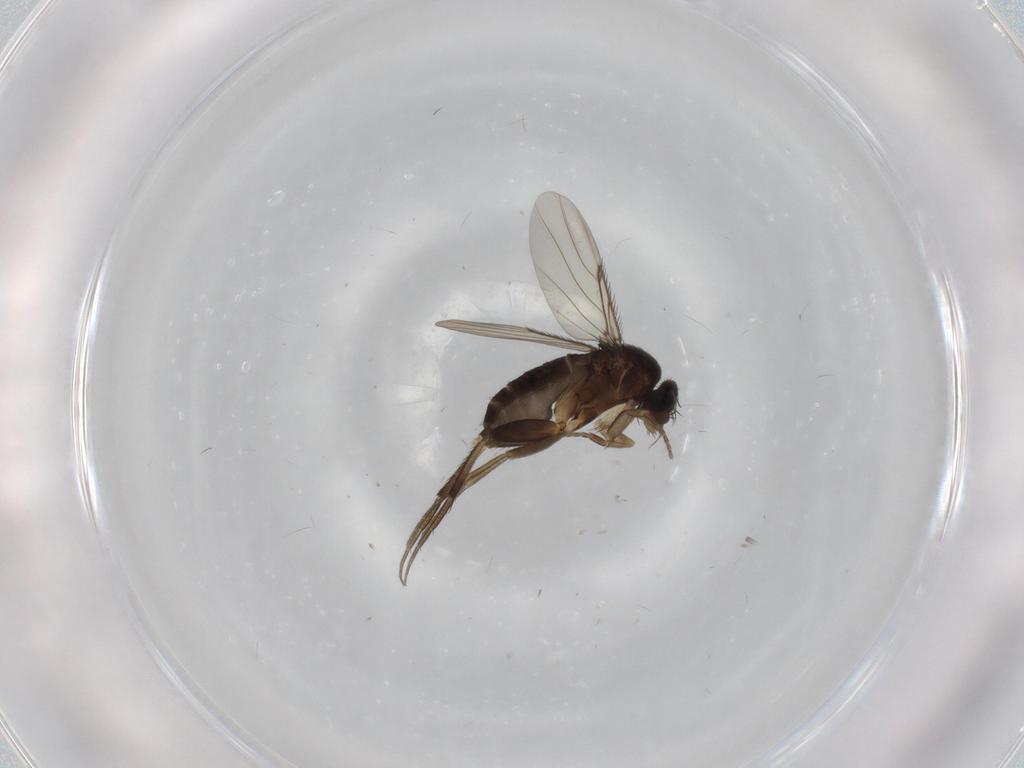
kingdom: Animalia
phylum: Arthropoda
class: Insecta
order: Diptera
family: Phoridae
